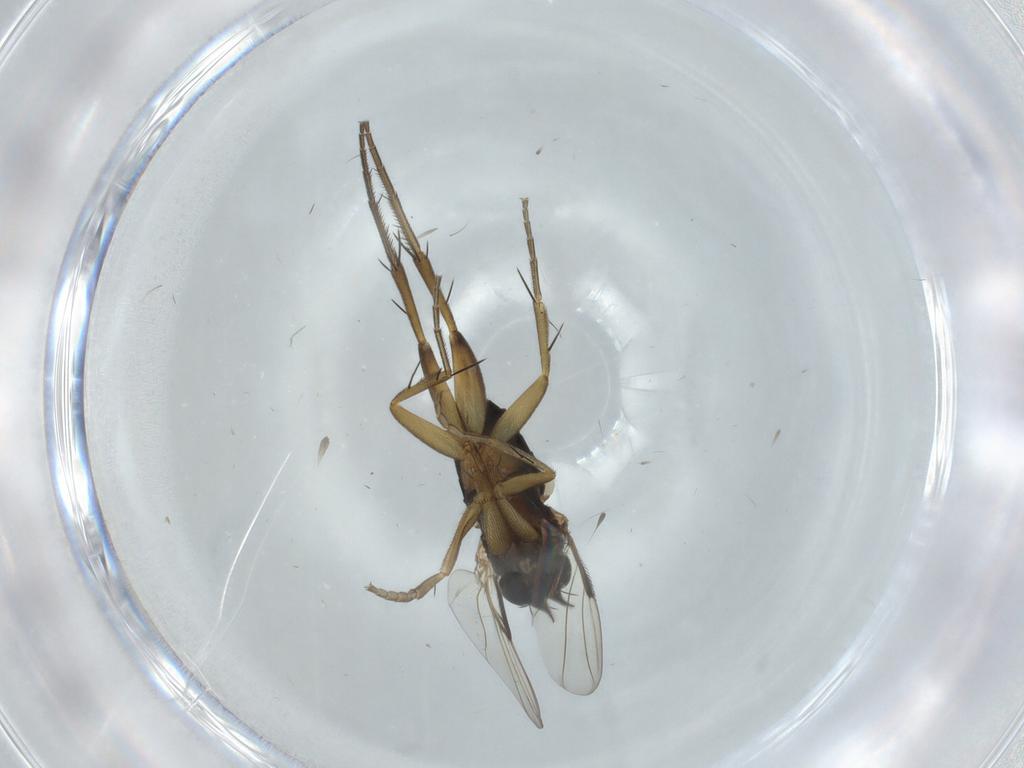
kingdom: Animalia
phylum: Arthropoda
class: Insecta
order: Diptera
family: Phoridae
